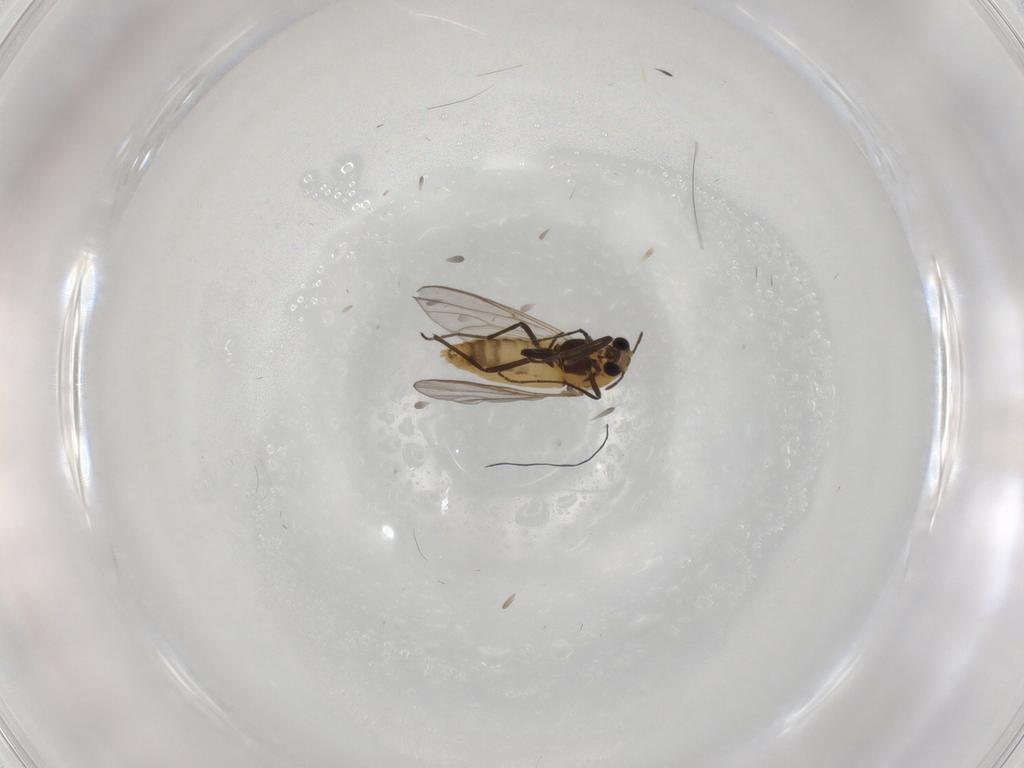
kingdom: Animalia
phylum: Arthropoda
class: Insecta
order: Diptera
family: Chironomidae
